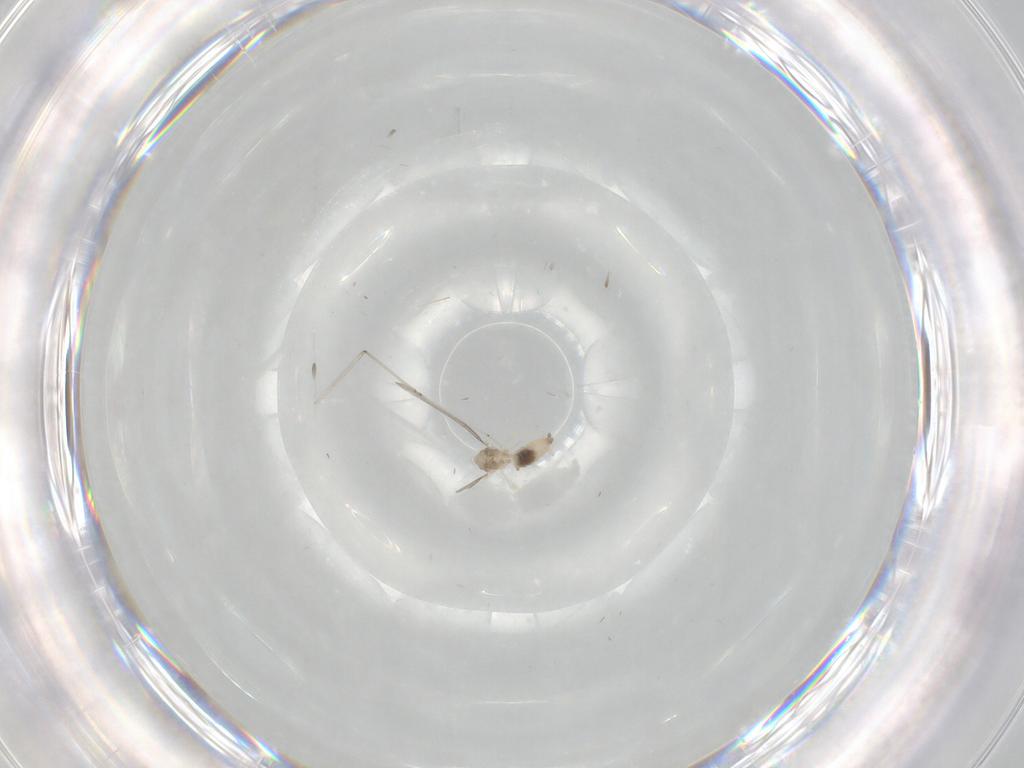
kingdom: Animalia
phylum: Arthropoda
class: Insecta
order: Diptera
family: Cecidomyiidae
